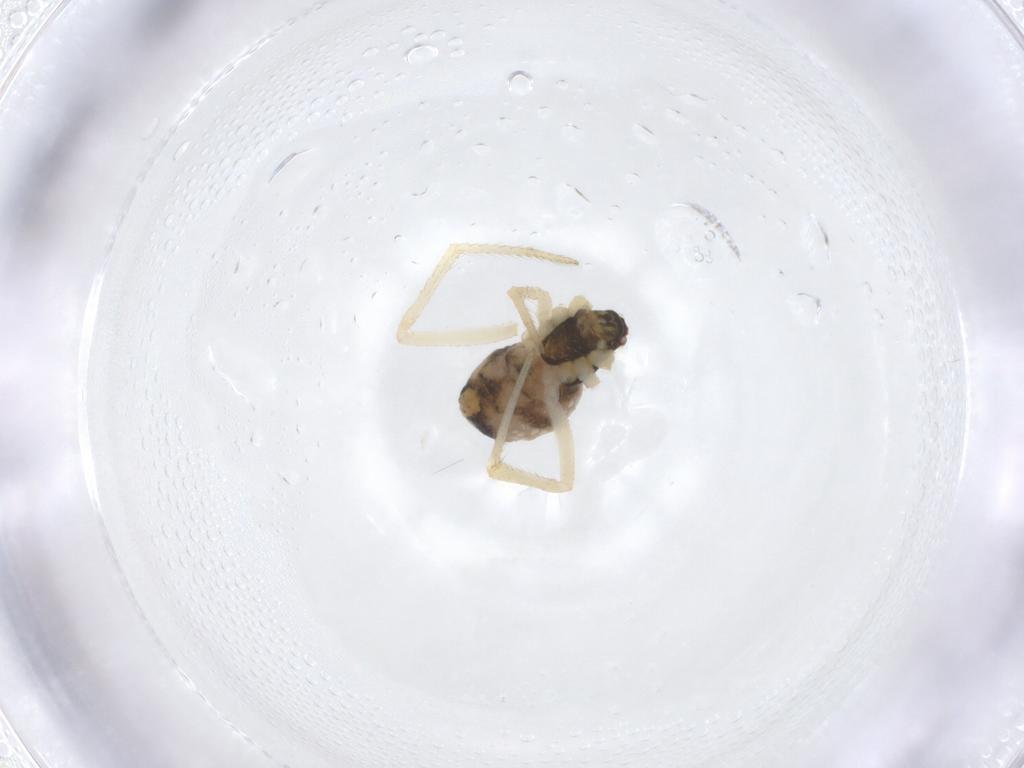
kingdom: Animalia
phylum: Arthropoda
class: Arachnida
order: Araneae
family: Theridiidae
